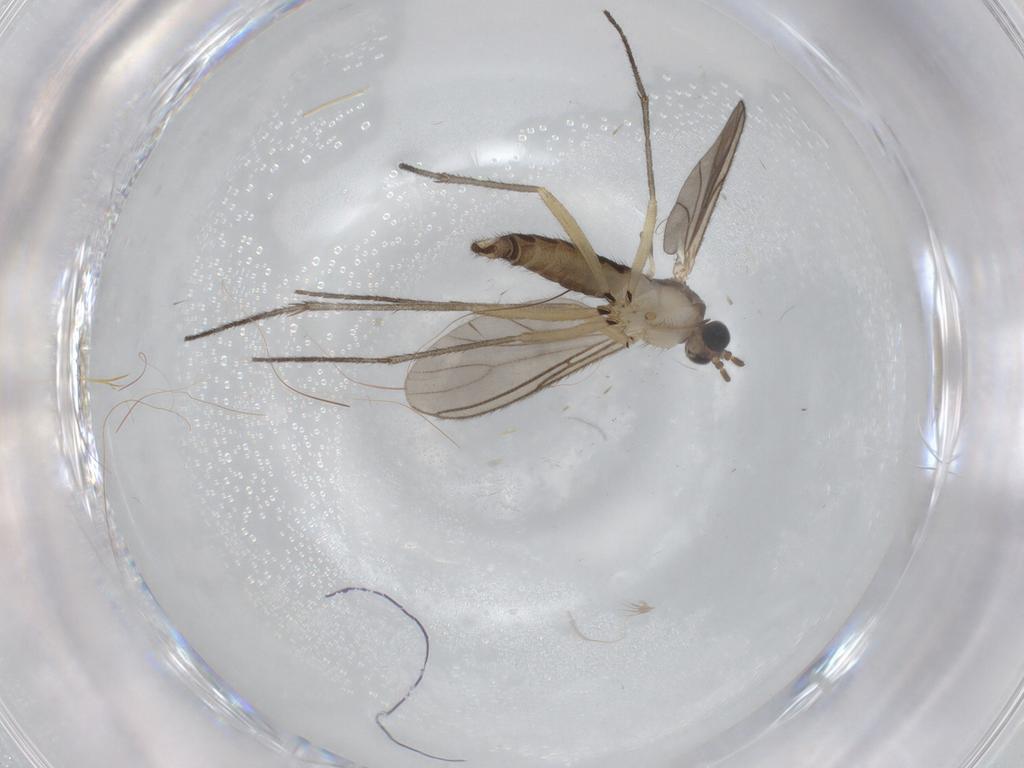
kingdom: Animalia
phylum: Arthropoda
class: Insecta
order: Diptera
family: Sciaridae
